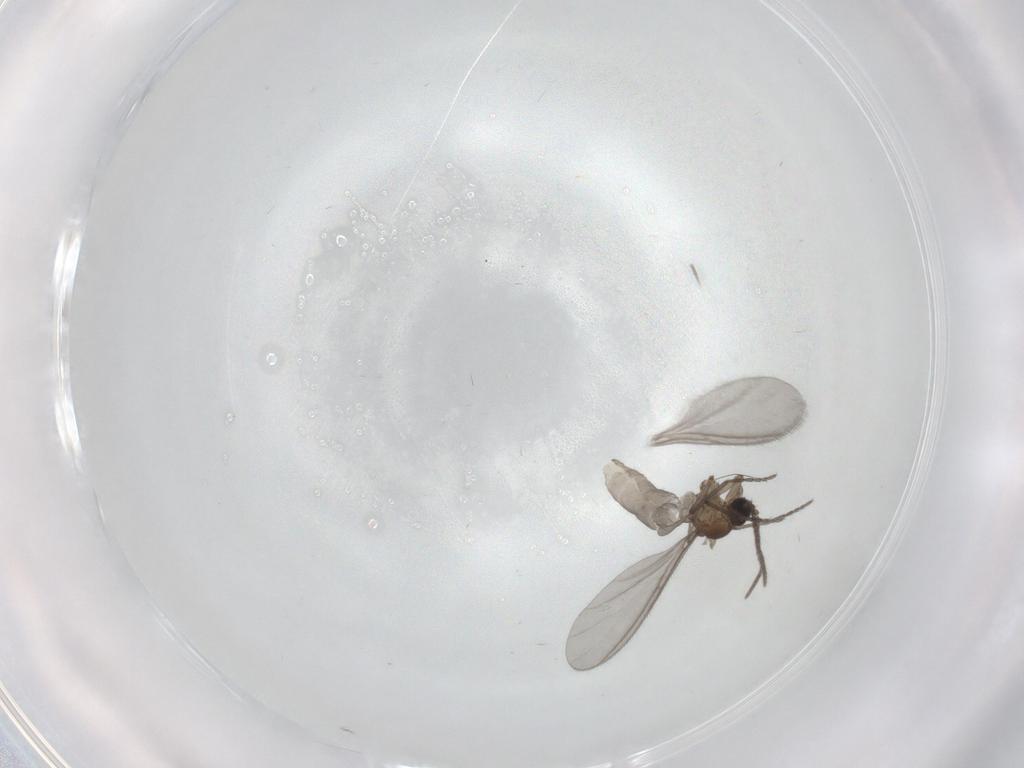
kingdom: Animalia
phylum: Arthropoda
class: Insecta
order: Diptera
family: Sciaridae
